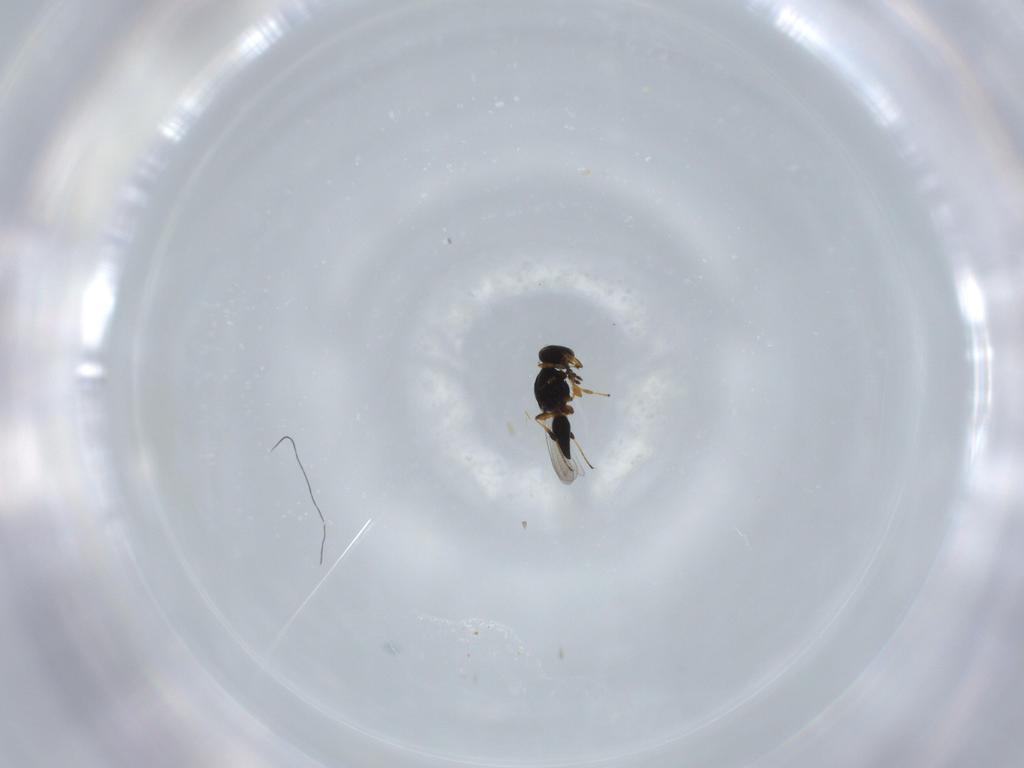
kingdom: Animalia
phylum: Arthropoda
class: Insecta
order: Hymenoptera
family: Platygastridae
